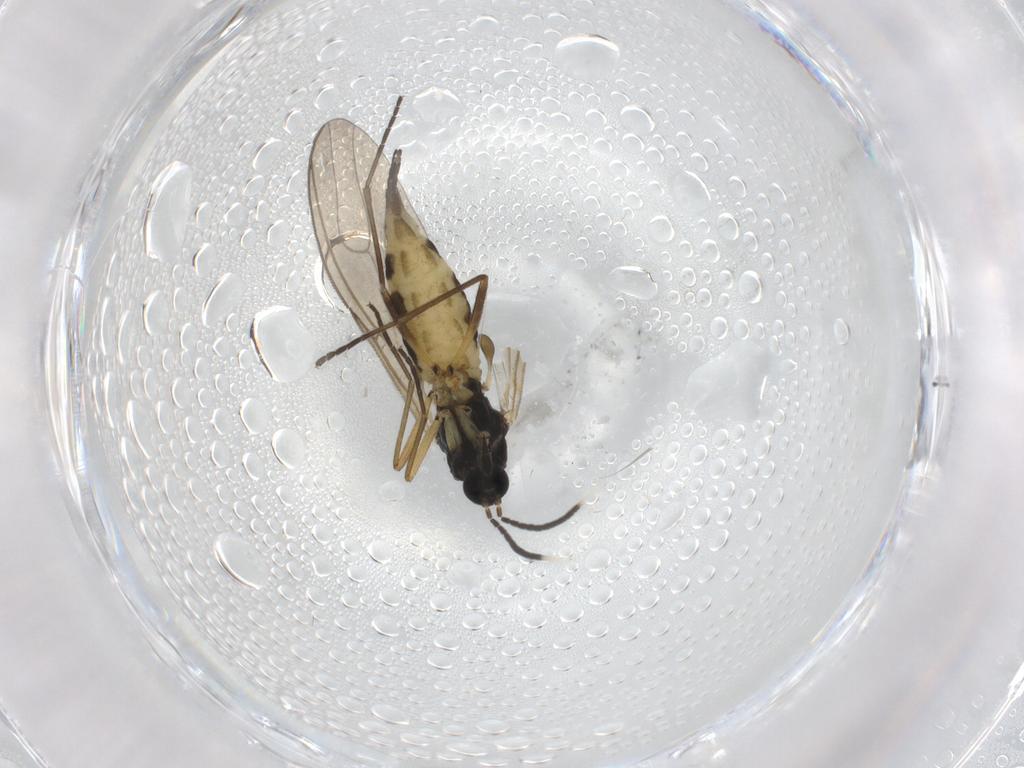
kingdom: Animalia
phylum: Arthropoda
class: Insecta
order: Diptera
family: Sciaridae
